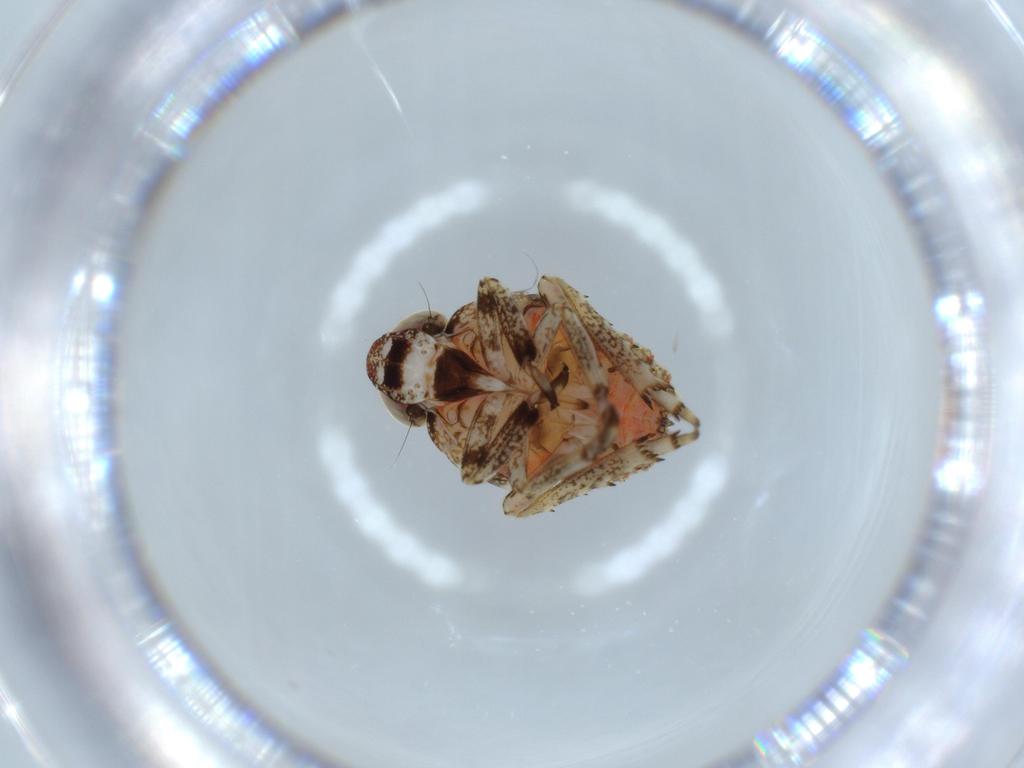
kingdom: Animalia
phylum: Arthropoda
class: Insecta
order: Hemiptera
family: Issidae
